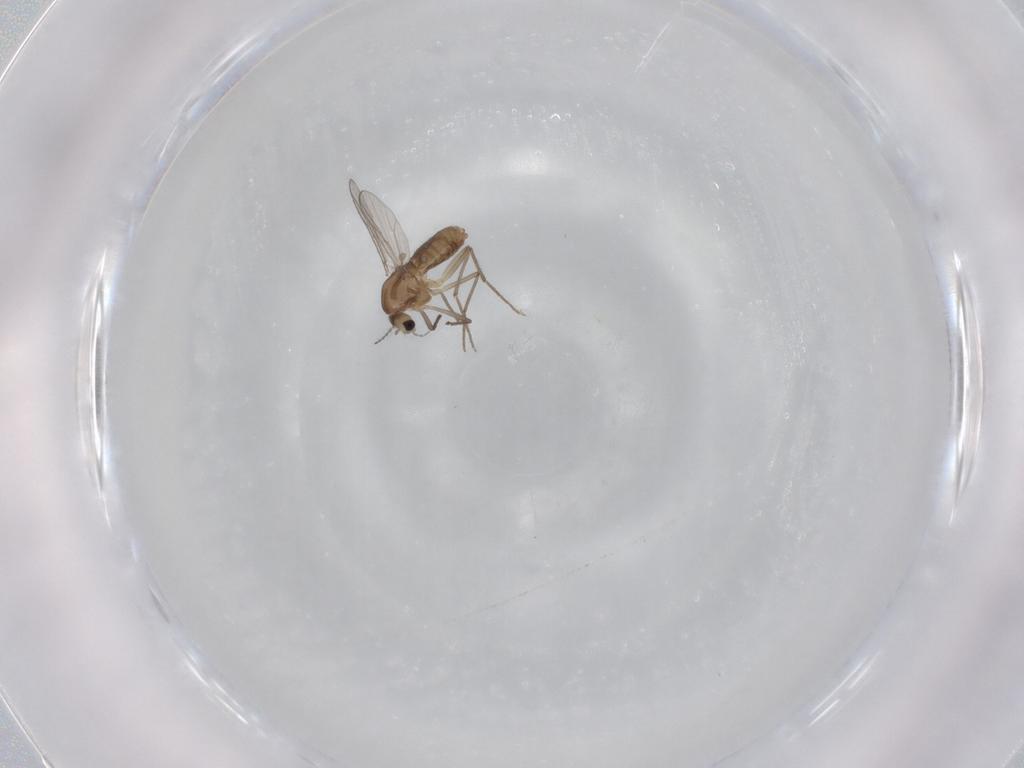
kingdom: Animalia
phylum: Arthropoda
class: Insecta
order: Diptera
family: Chironomidae
